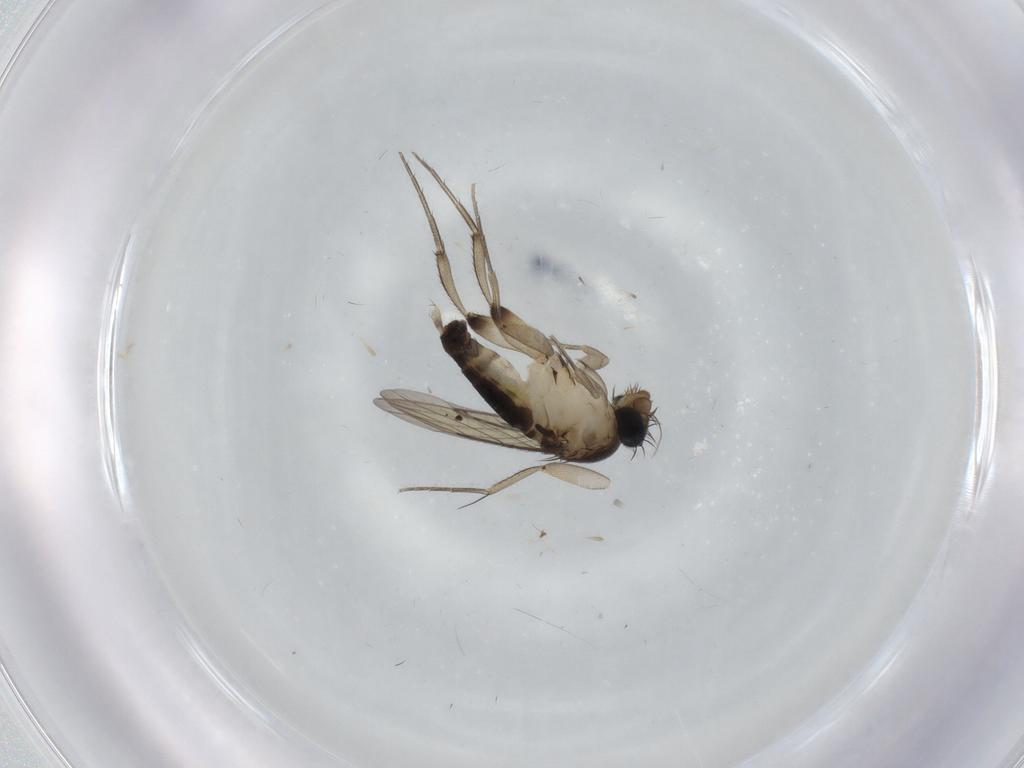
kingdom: Animalia
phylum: Arthropoda
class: Insecta
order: Diptera
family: Phoridae
